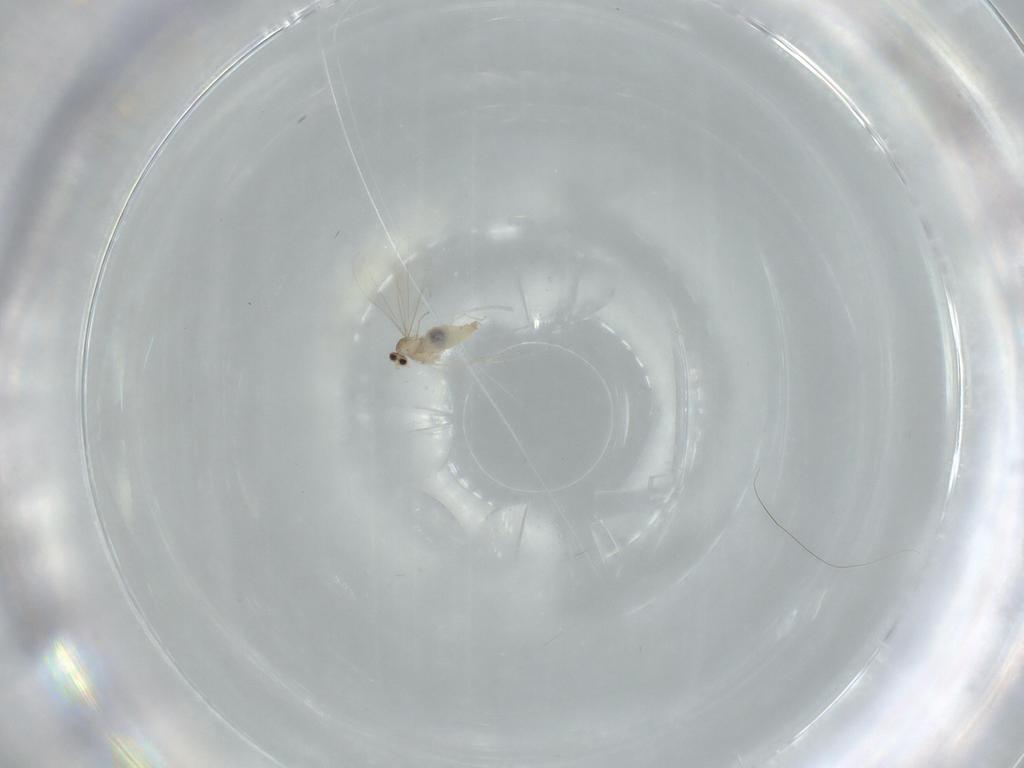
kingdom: Animalia
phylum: Arthropoda
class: Insecta
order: Diptera
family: Cecidomyiidae
